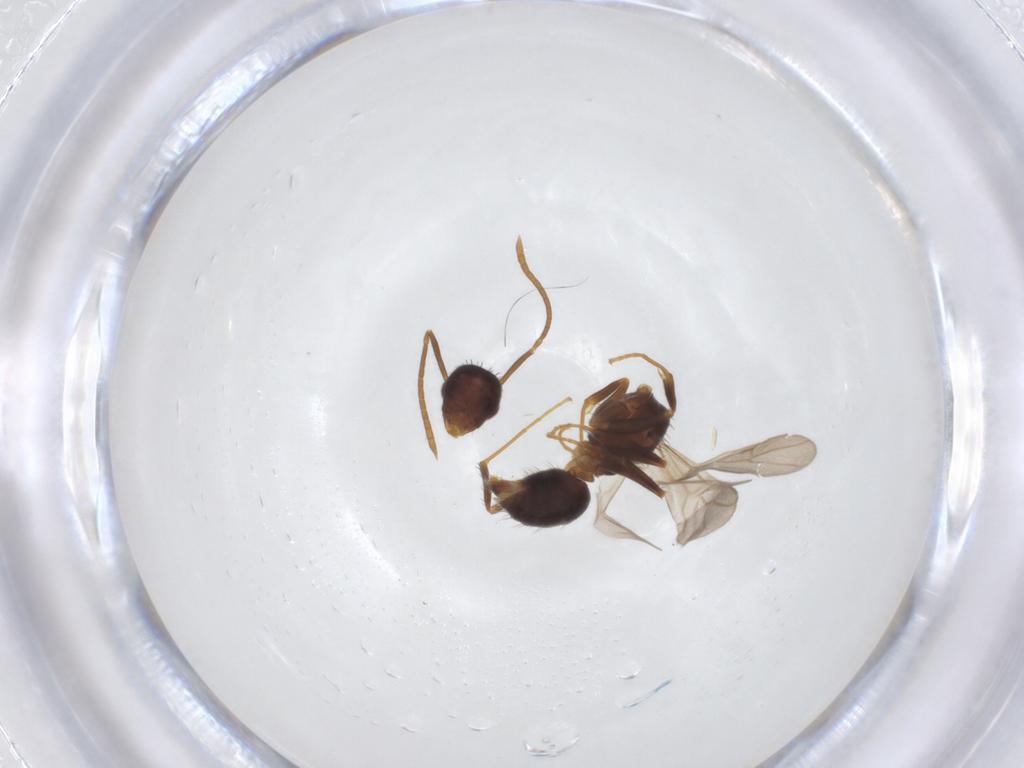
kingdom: Animalia
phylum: Arthropoda
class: Insecta
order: Hymenoptera
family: Formicidae
